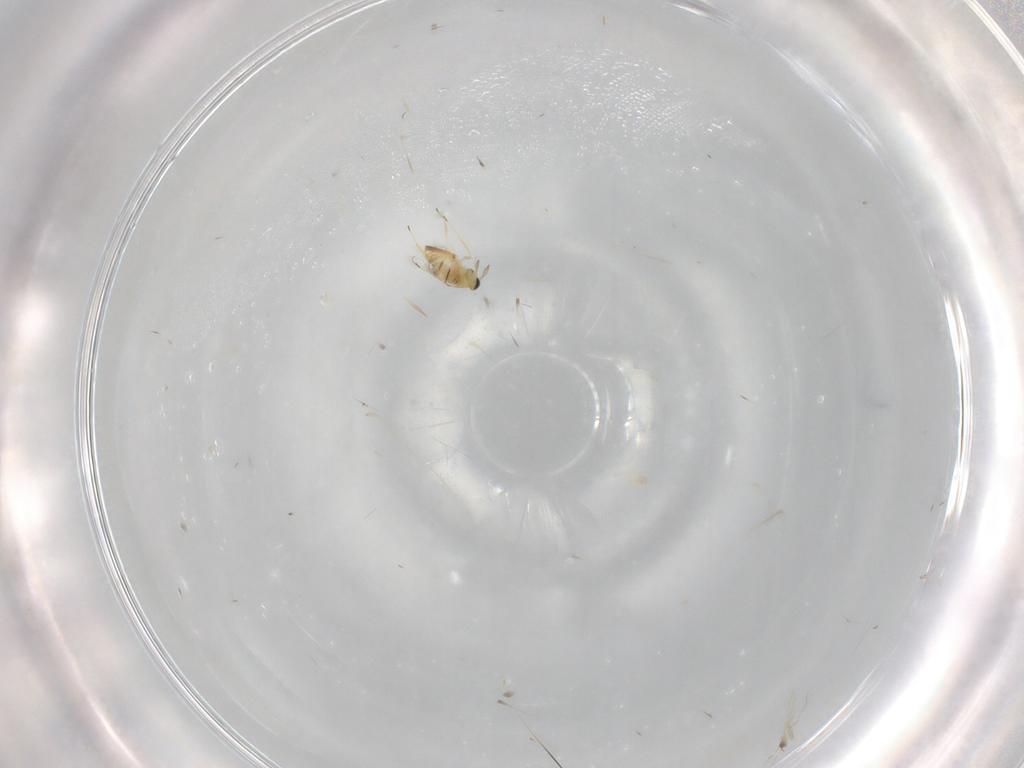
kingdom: Animalia
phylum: Arthropoda
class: Insecta
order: Hymenoptera
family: Trichogrammatidae
